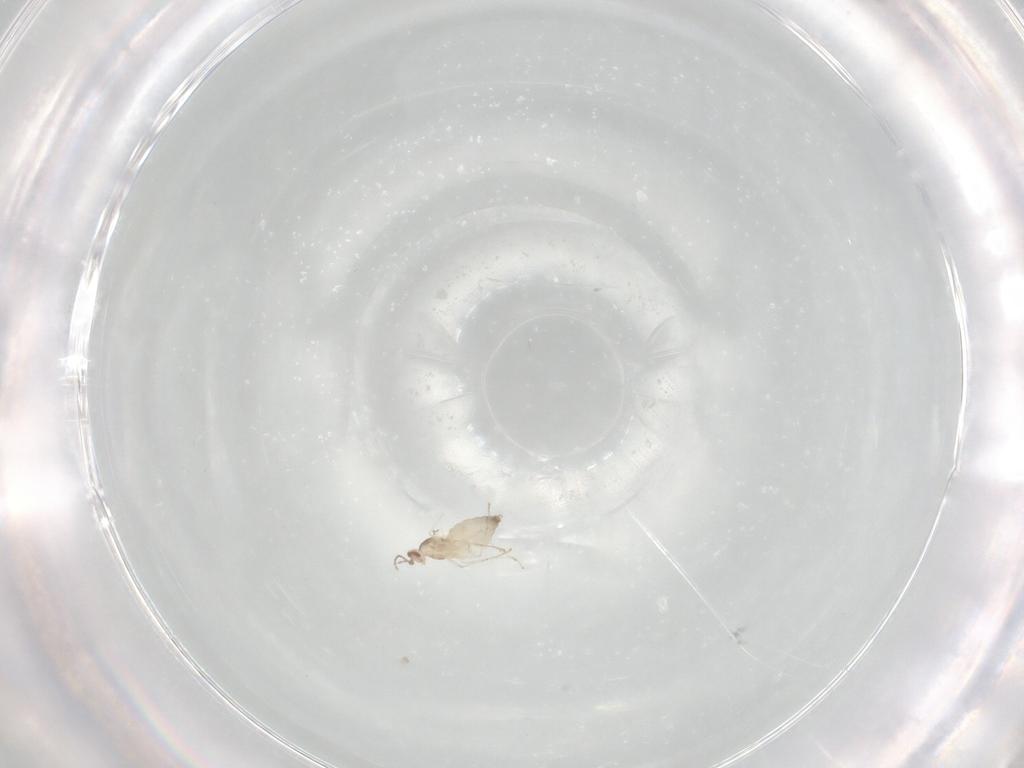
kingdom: Animalia
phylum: Arthropoda
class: Insecta
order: Diptera
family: Cecidomyiidae
